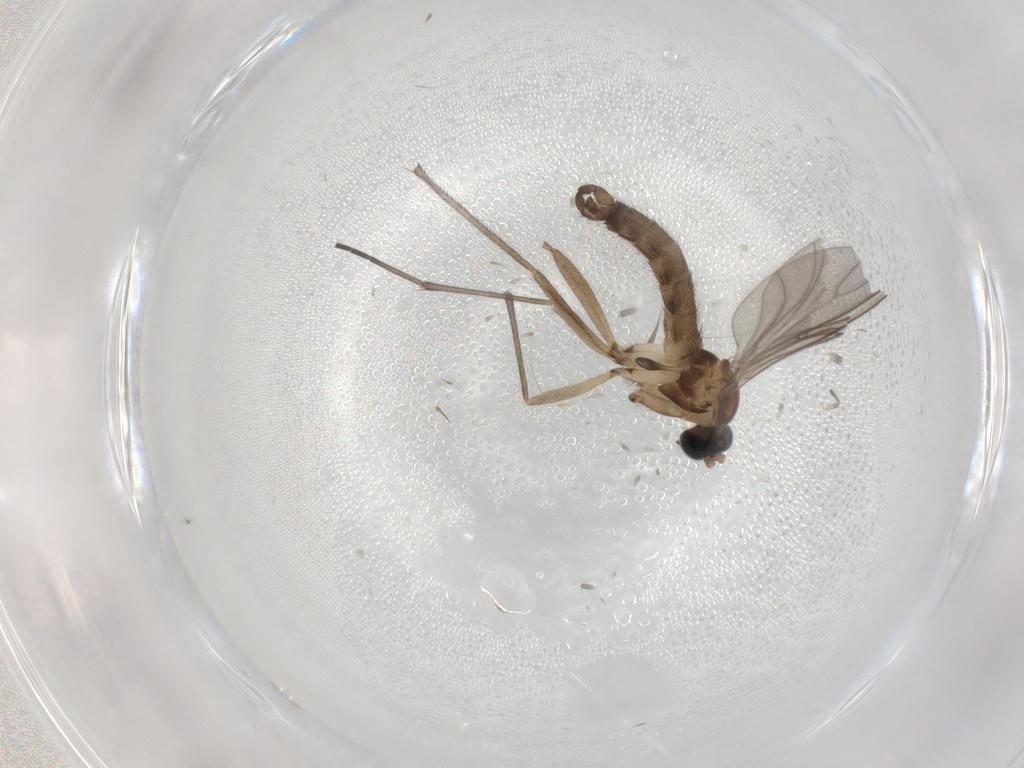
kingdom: Animalia
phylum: Arthropoda
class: Insecta
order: Diptera
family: Sciaridae
